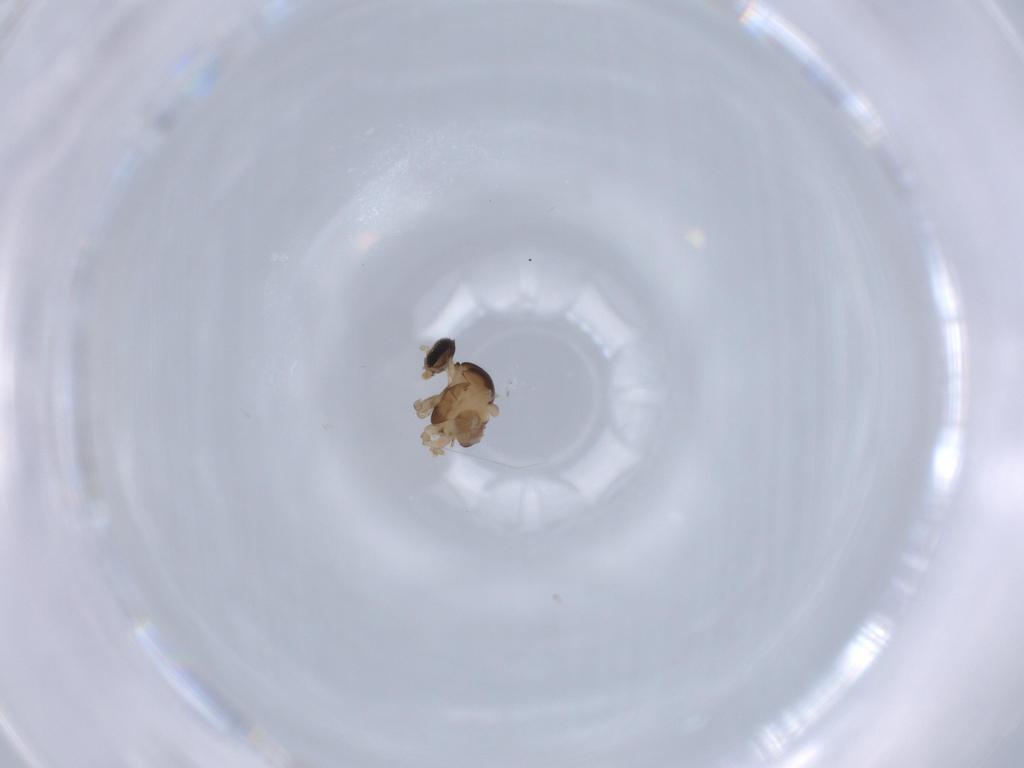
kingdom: Animalia
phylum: Arthropoda
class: Insecta
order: Diptera
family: Cecidomyiidae
